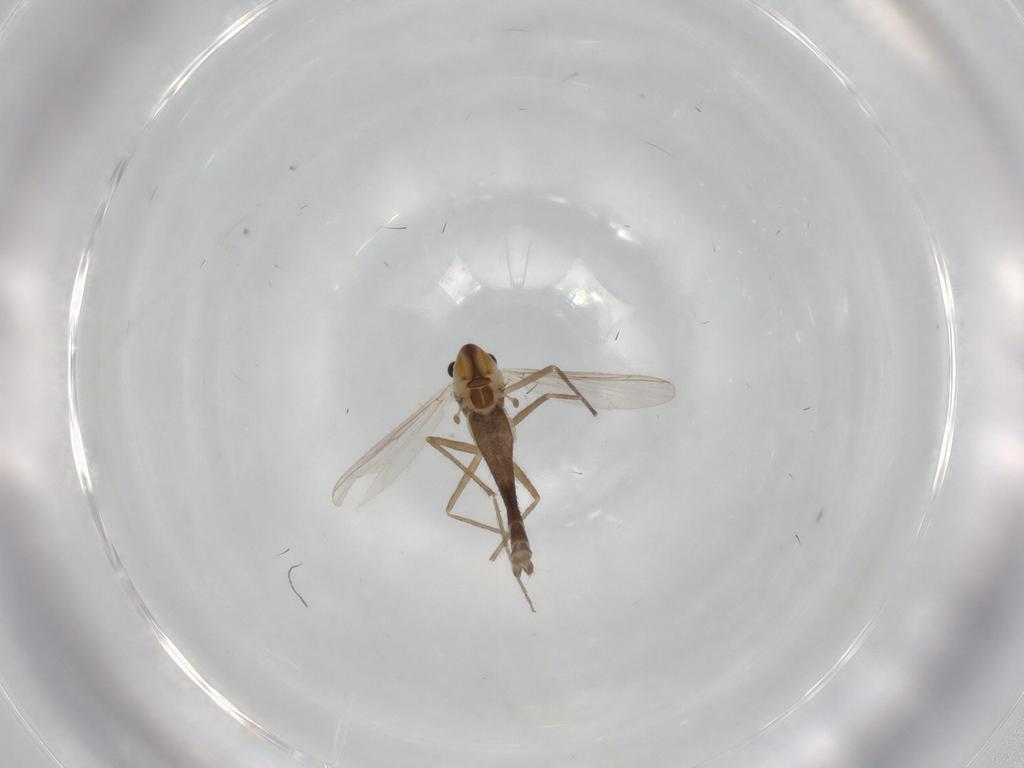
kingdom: Animalia
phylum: Arthropoda
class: Insecta
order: Diptera
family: Chironomidae
